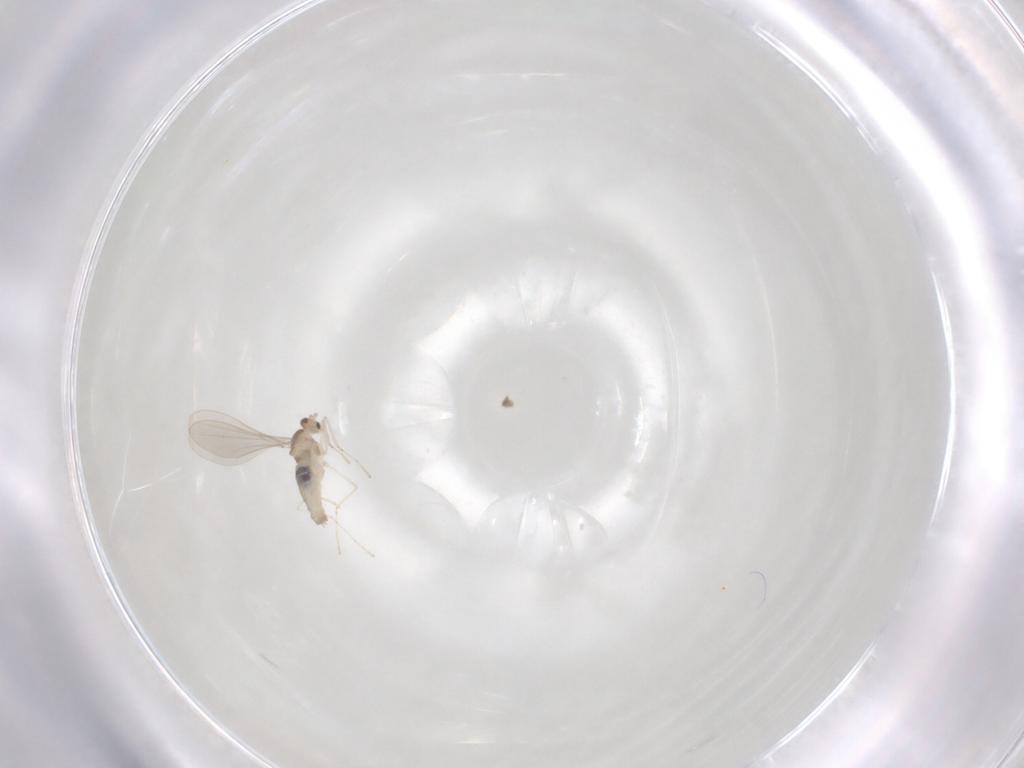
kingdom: Animalia
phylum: Arthropoda
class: Insecta
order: Diptera
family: Cecidomyiidae
